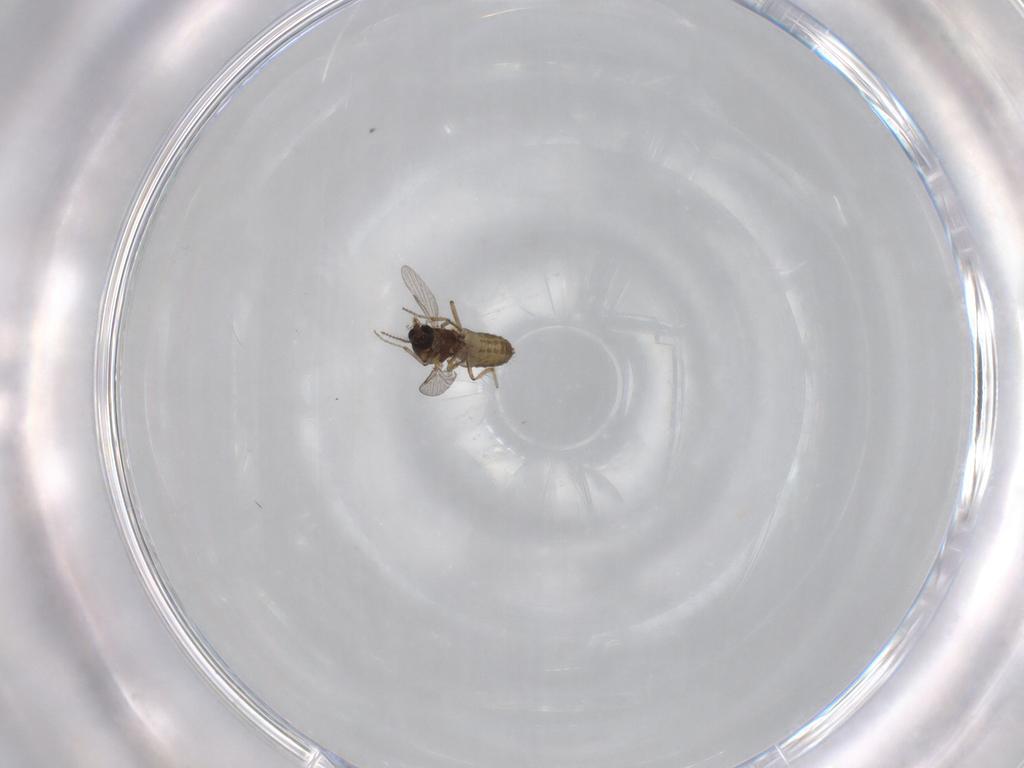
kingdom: Animalia
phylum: Arthropoda
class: Insecta
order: Diptera
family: Ceratopogonidae
